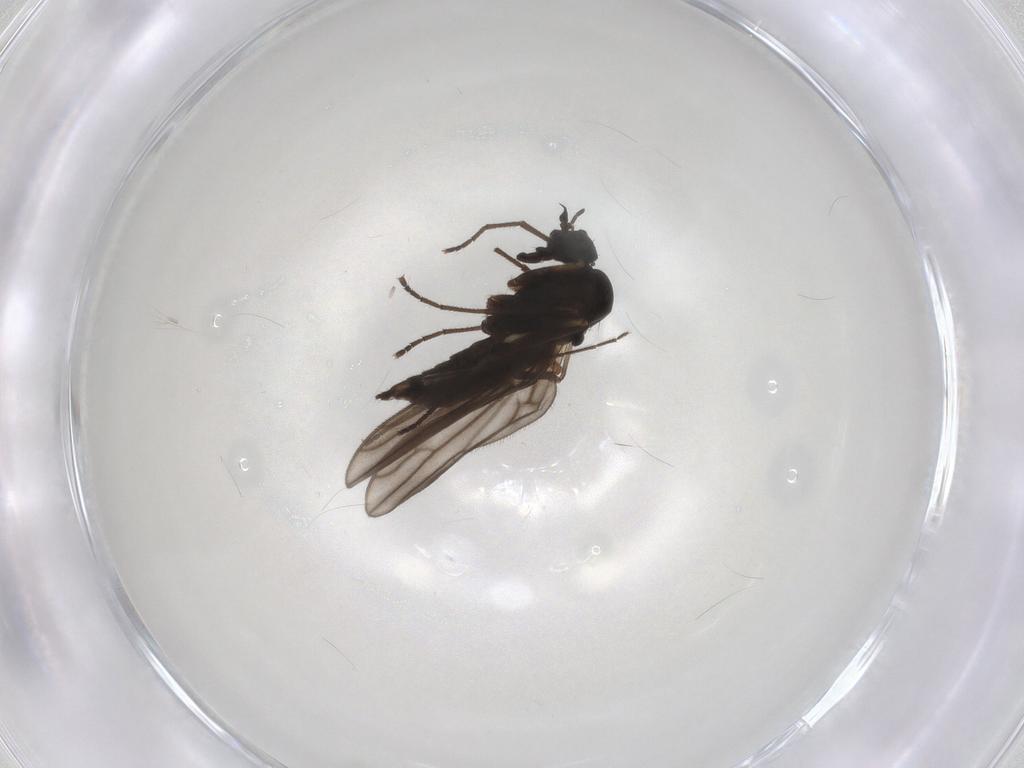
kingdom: Animalia
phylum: Arthropoda
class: Insecta
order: Diptera
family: Empididae
